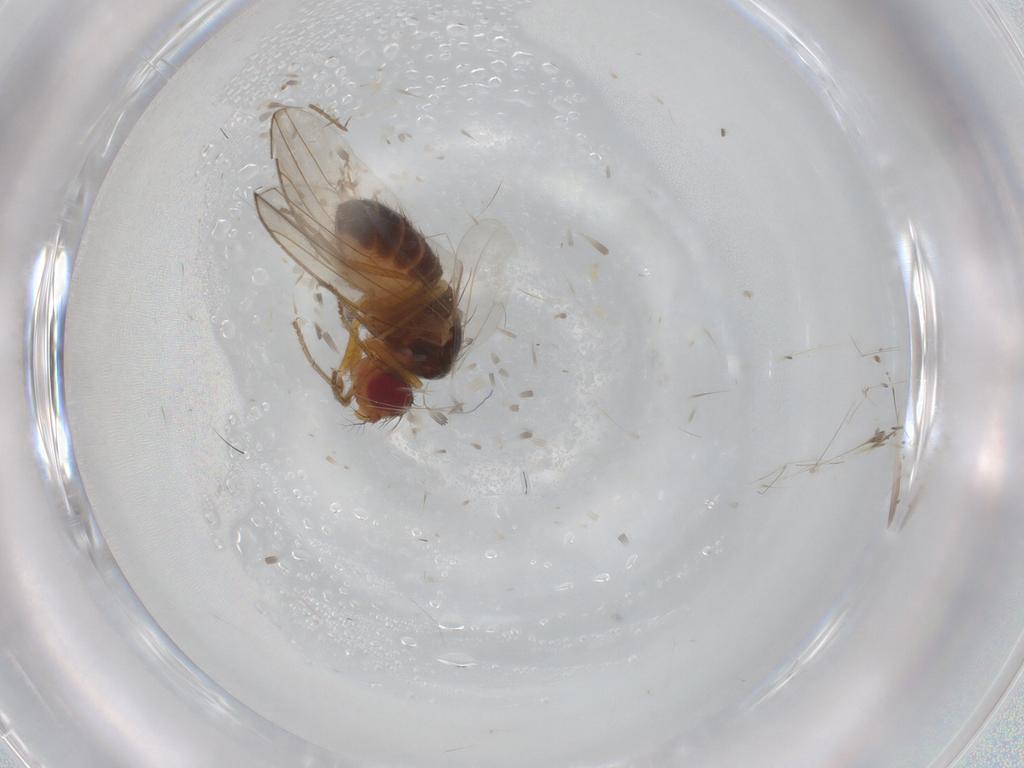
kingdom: Animalia
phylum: Arthropoda
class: Insecta
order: Diptera
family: Drosophilidae
